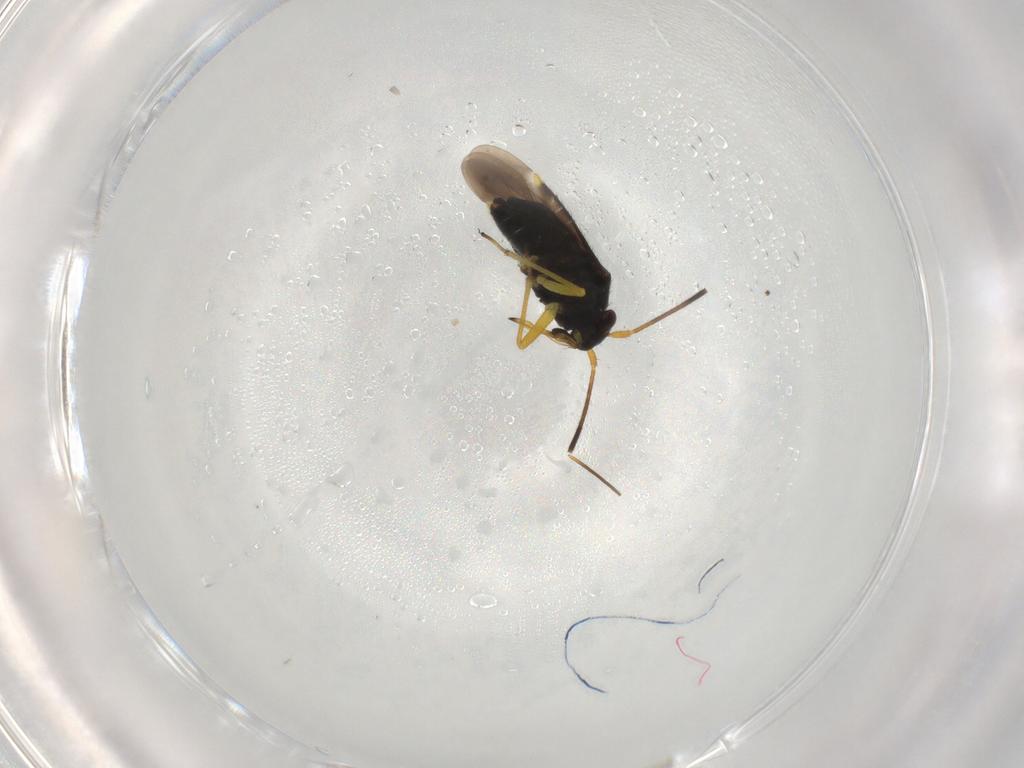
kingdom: Animalia
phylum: Arthropoda
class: Insecta
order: Hemiptera
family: Miridae
